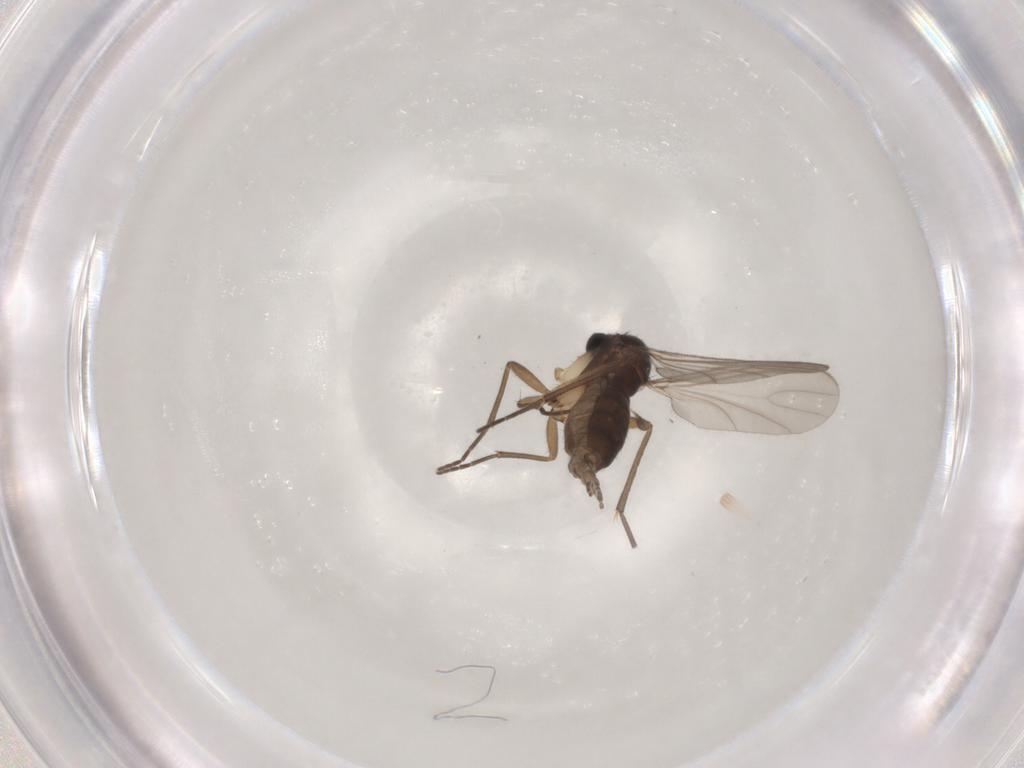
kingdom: Animalia
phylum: Arthropoda
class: Insecta
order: Diptera
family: Sciaridae
